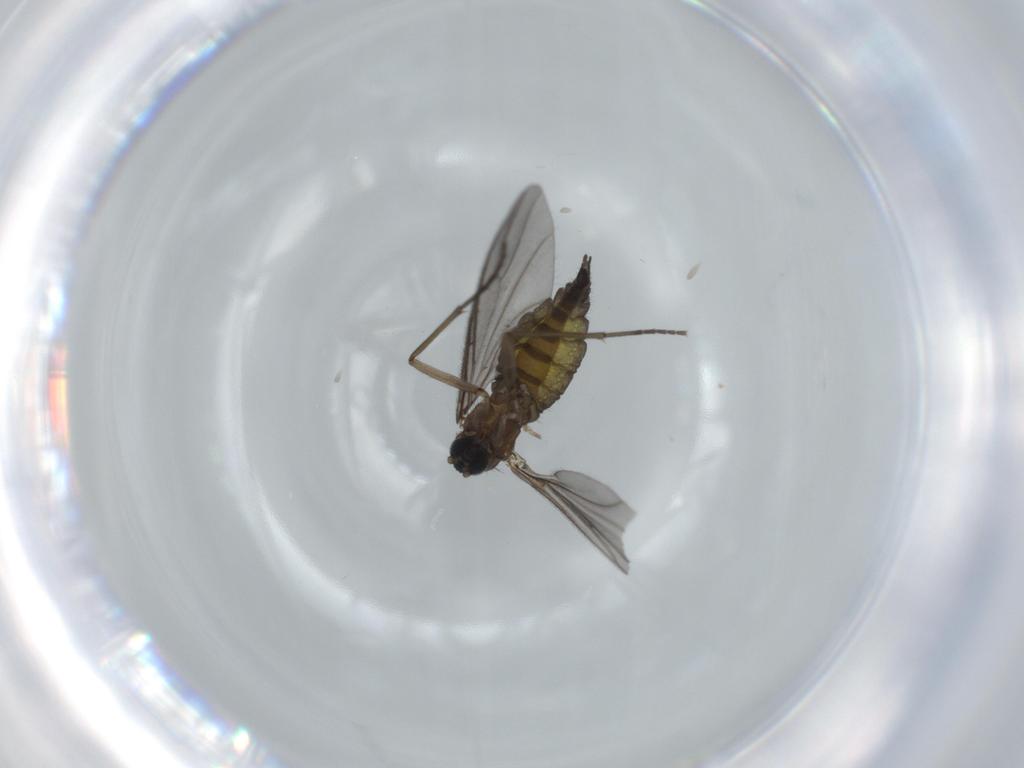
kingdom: Animalia
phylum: Arthropoda
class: Insecta
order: Diptera
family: Sciaridae
